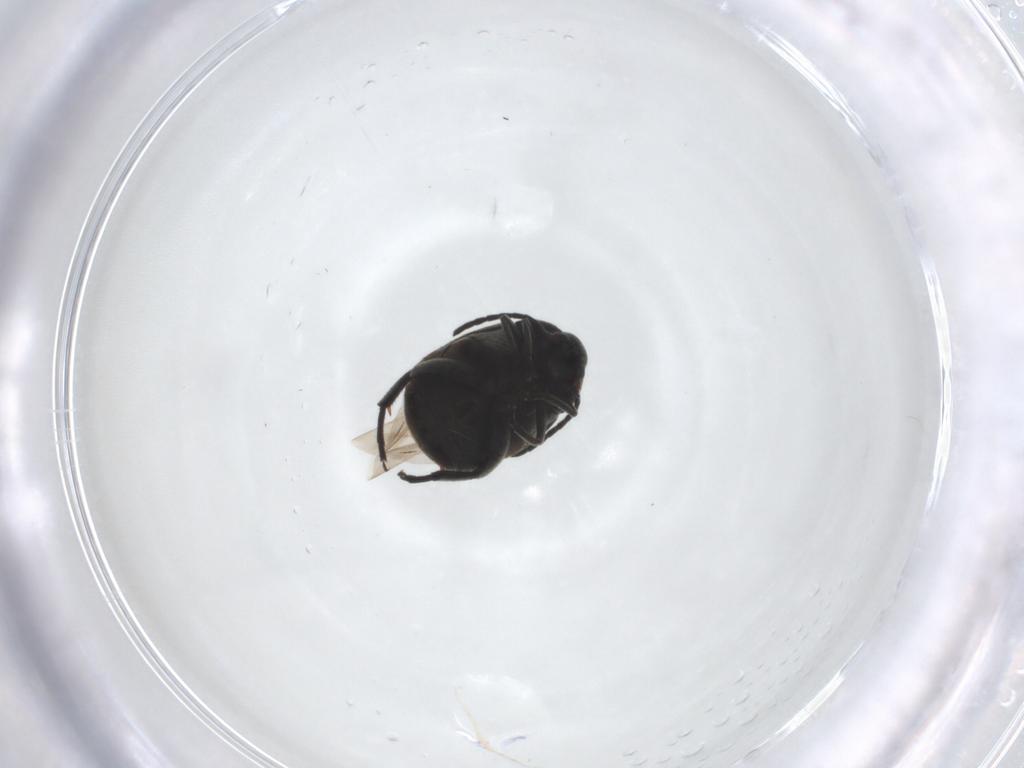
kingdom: Animalia
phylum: Arthropoda
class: Insecta
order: Coleoptera
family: Chrysomelidae
